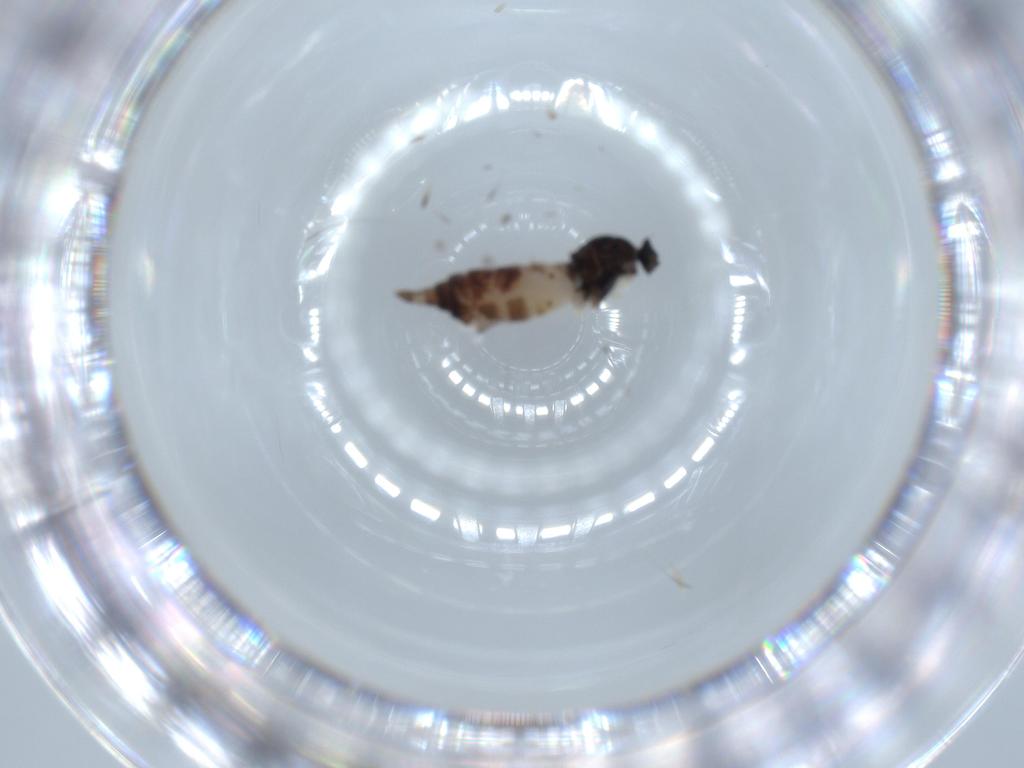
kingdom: Animalia
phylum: Arthropoda
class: Insecta
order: Diptera
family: Hybotidae
